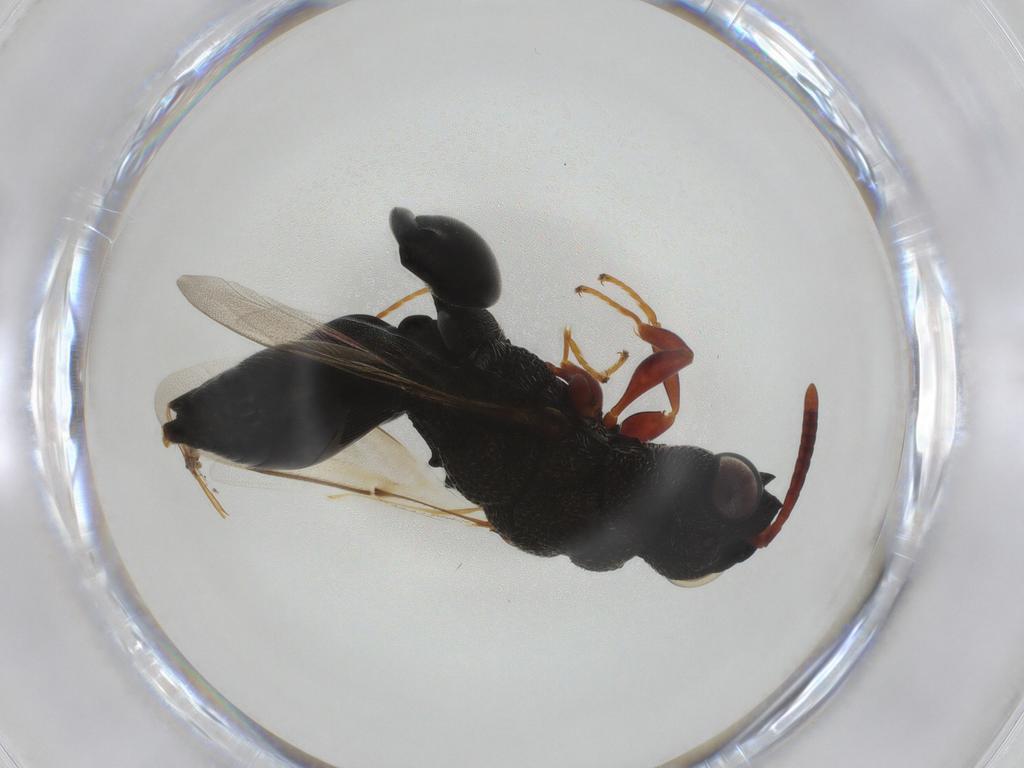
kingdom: Animalia
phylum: Arthropoda
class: Insecta
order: Hymenoptera
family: Chalcididae
